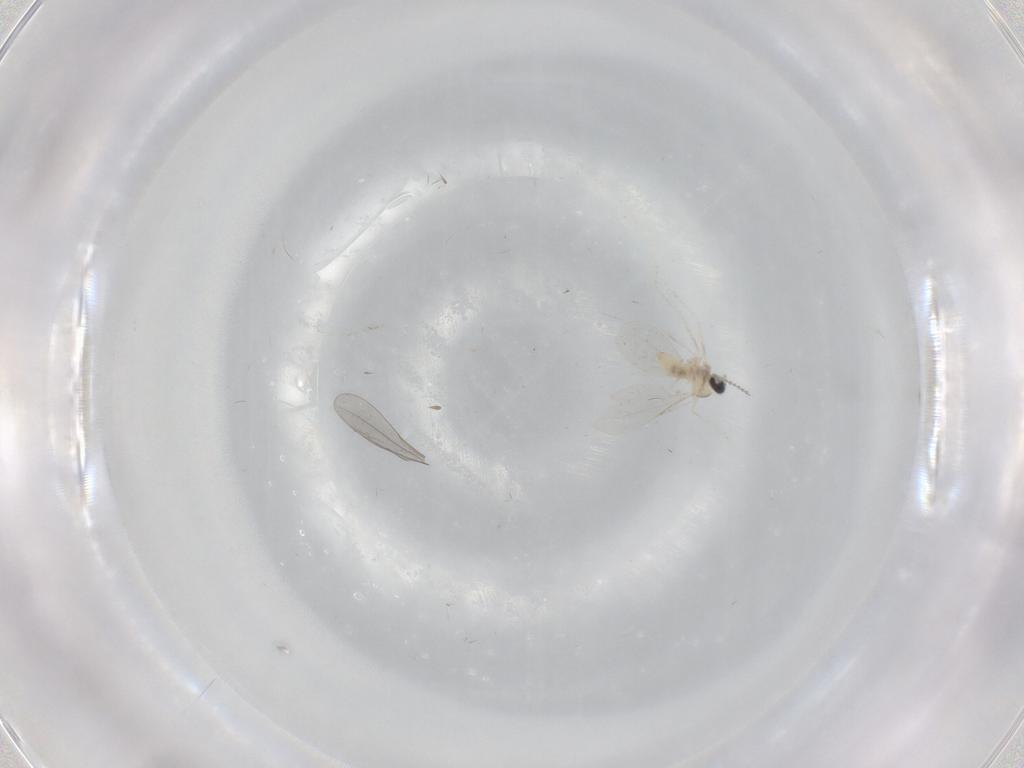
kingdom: Animalia
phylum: Arthropoda
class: Insecta
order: Diptera
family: Cecidomyiidae
